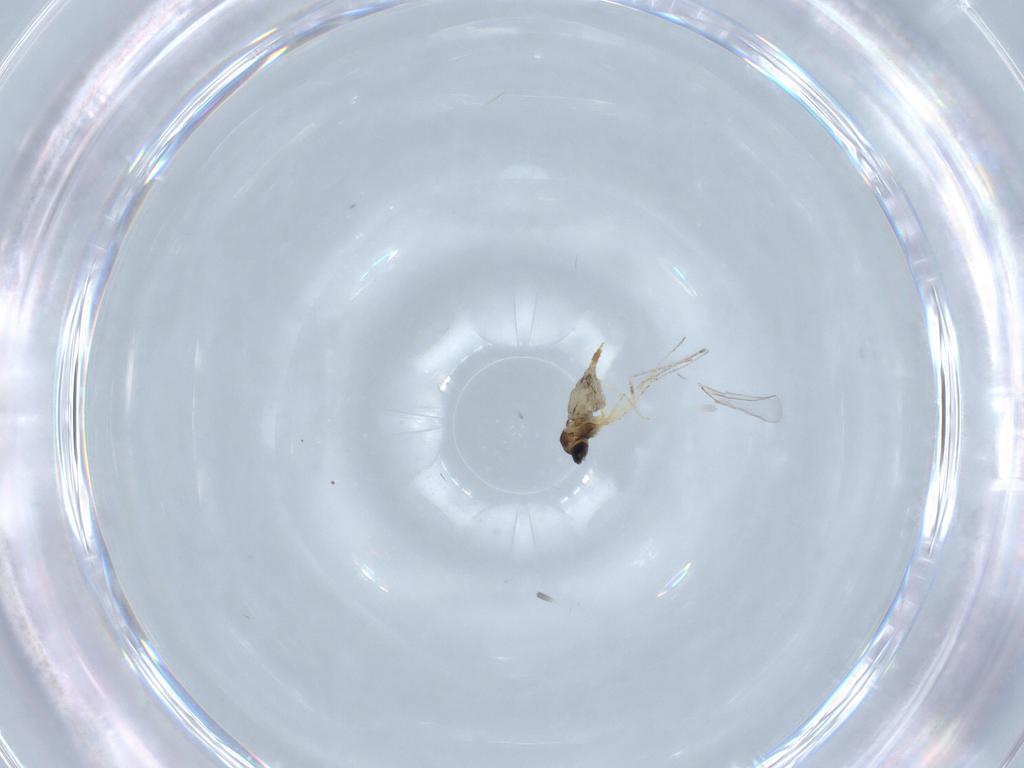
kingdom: Animalia
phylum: Arthropoda
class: Insecta
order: Diptera
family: Cecidomyiidae
